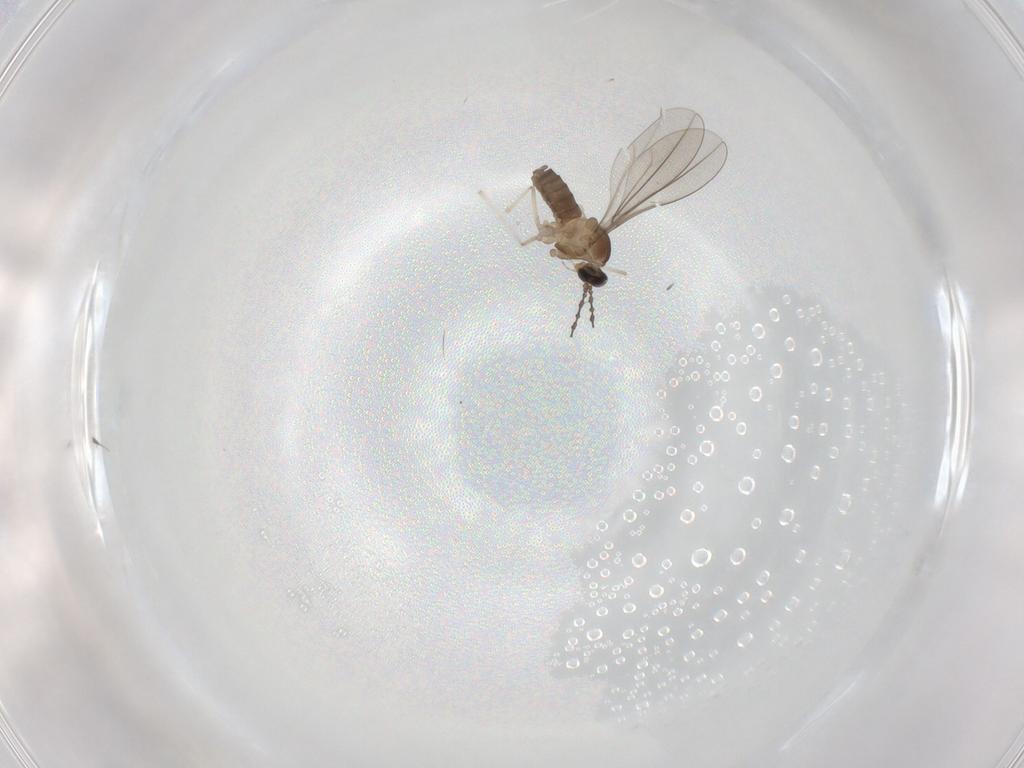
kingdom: Animalia
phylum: Arthropoda
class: Insecta
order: Diptera
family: Cecidomyiidae
